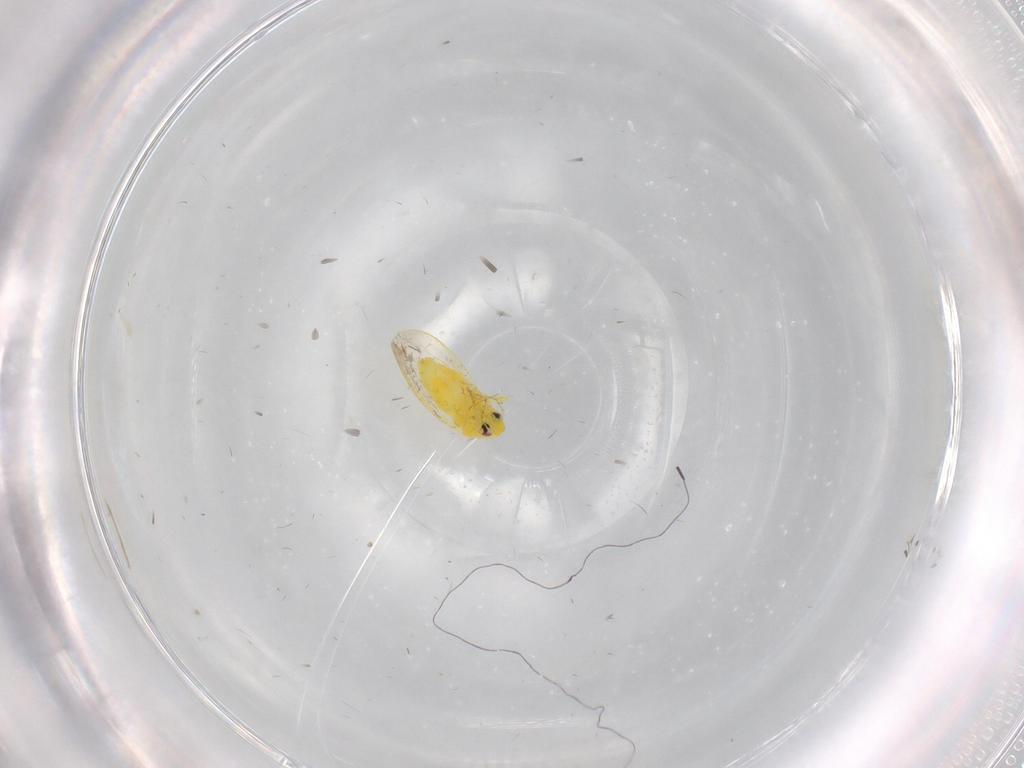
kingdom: Animalia
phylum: Arthropoda
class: Insecta
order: Hemiptera
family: Aleyrodidae
